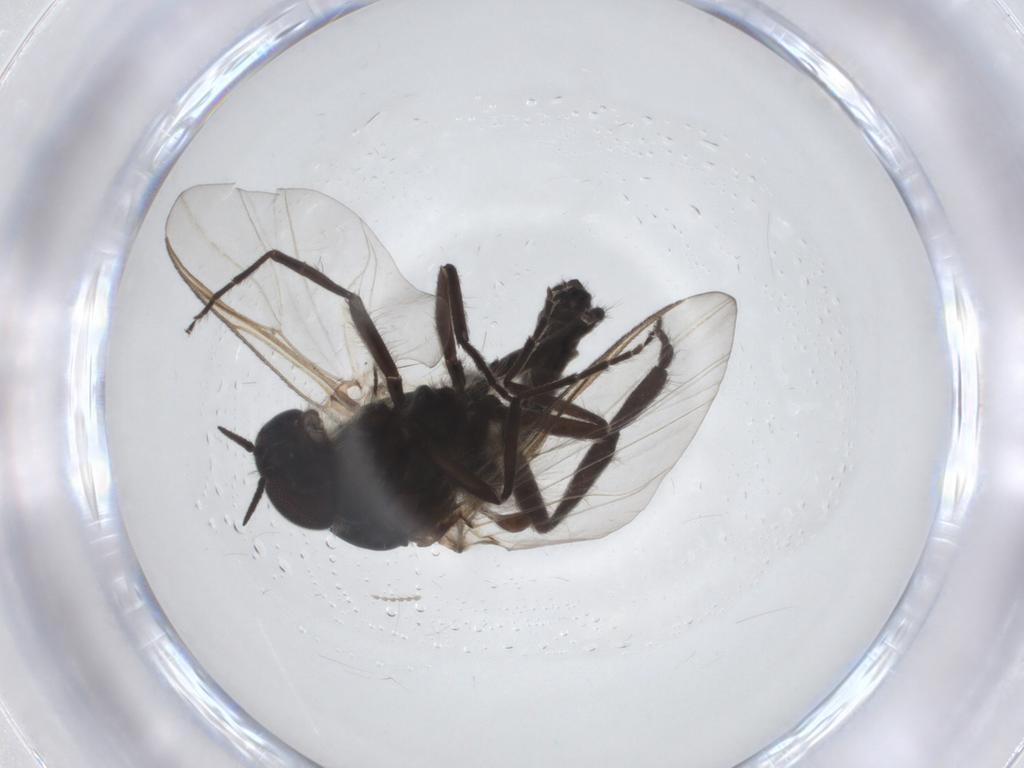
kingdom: Animalia
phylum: Arthropoda
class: Insecta
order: Diptera
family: Simuliidae
